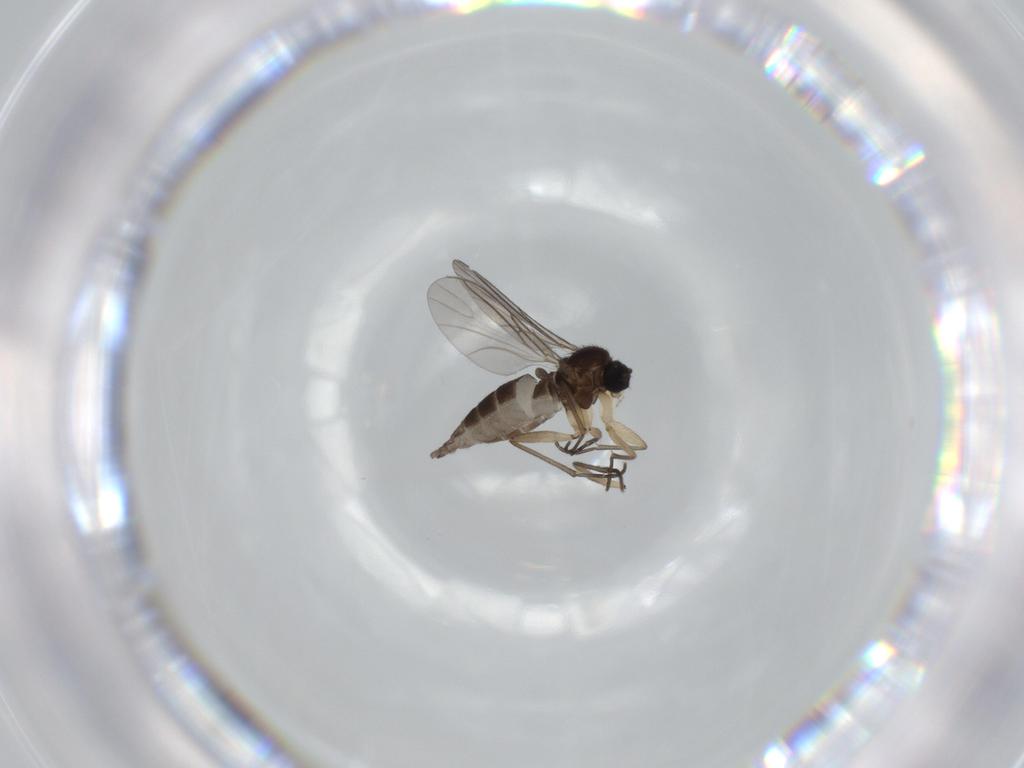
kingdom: Animalia
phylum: Arthropoda
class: Insecta
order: Diptera
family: Sciaridae
